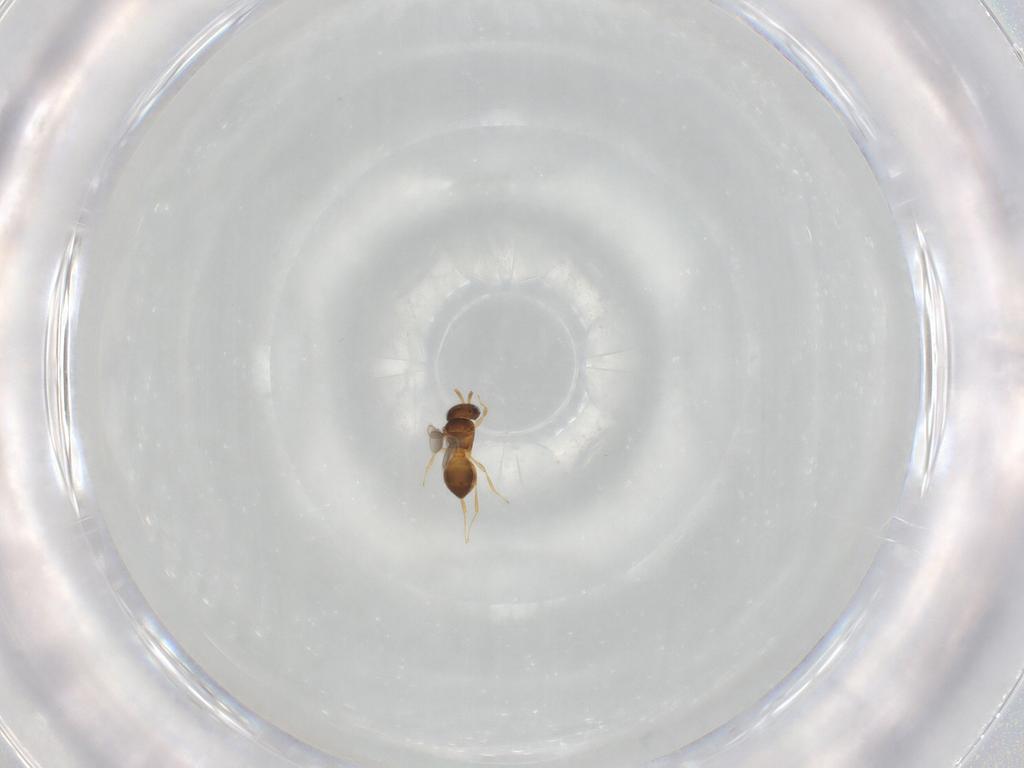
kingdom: Animalia
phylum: Arthropoda
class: Insecta
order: Hymenoptera
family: Scelionidae
